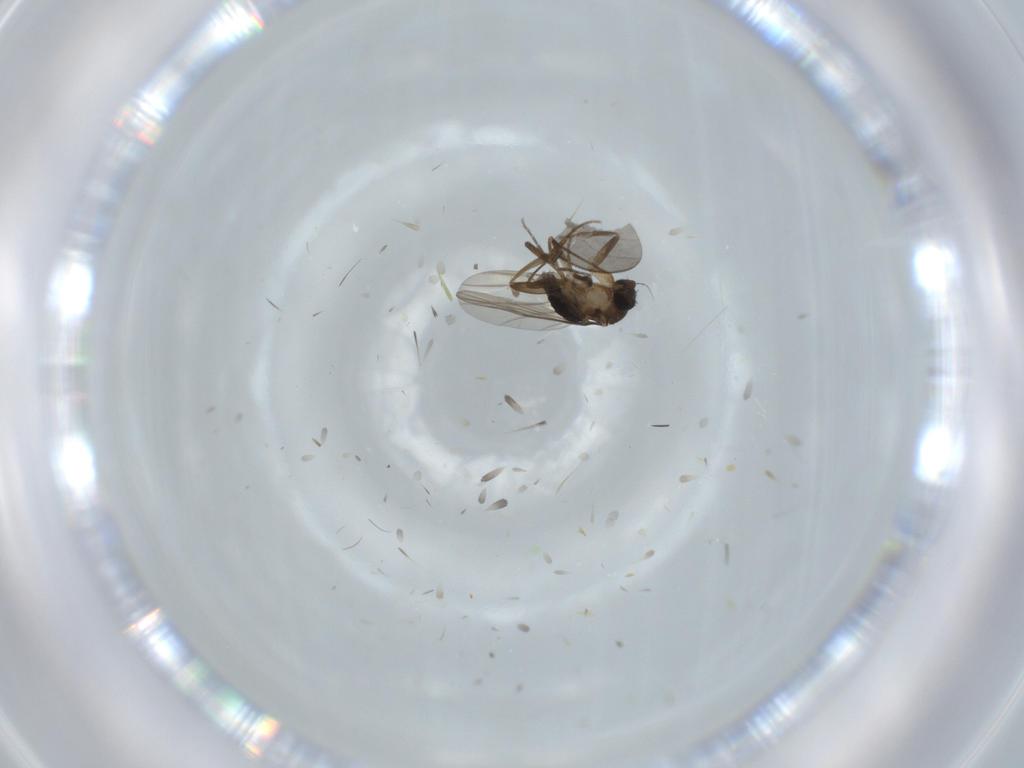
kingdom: Animalia
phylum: Arthropoda
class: Insecta
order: Diptera
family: Phoridae
